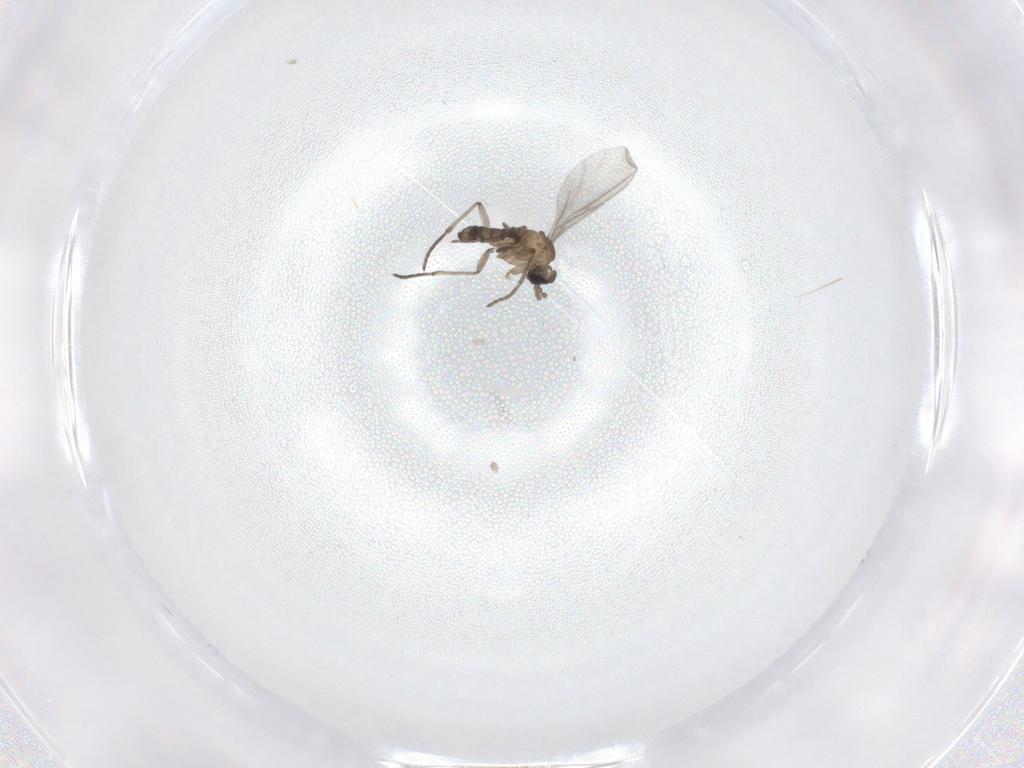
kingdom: Animalia
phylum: Arthropoda
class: Insecta
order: Diptera
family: Sciaridae
